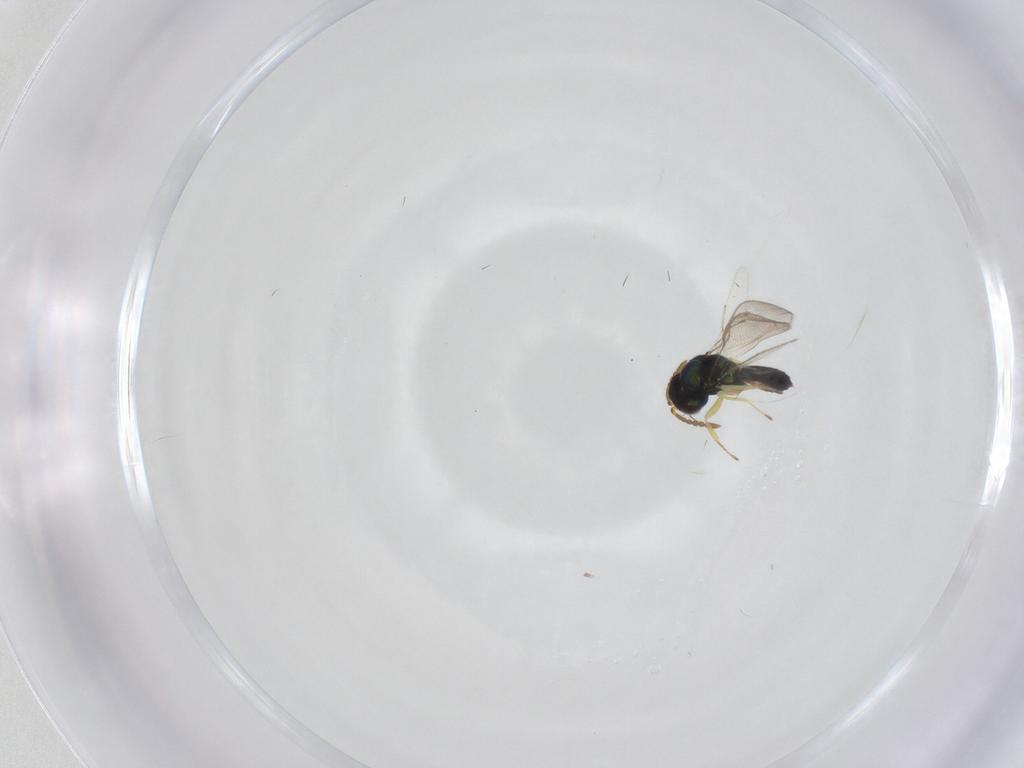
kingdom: Animalia
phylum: Arthropoda
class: Insecta
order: Hymenoptera
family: Pteromalidae
